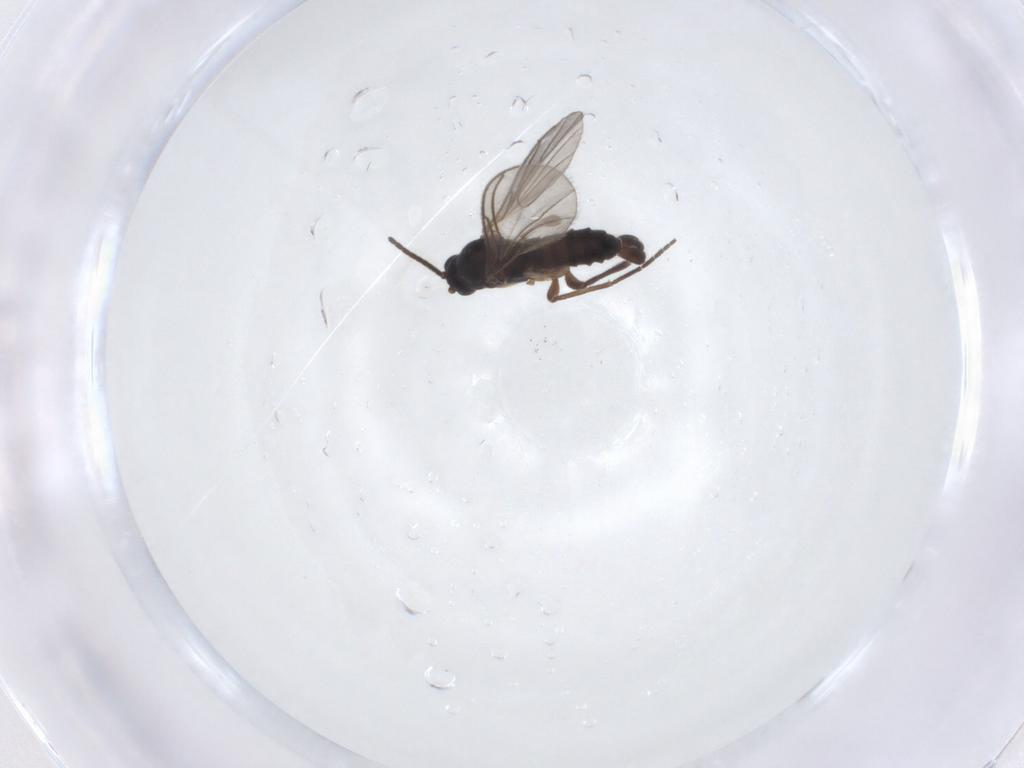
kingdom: Animalia
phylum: Arthropoda
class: Insecta
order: Diptera
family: Sciaridae
